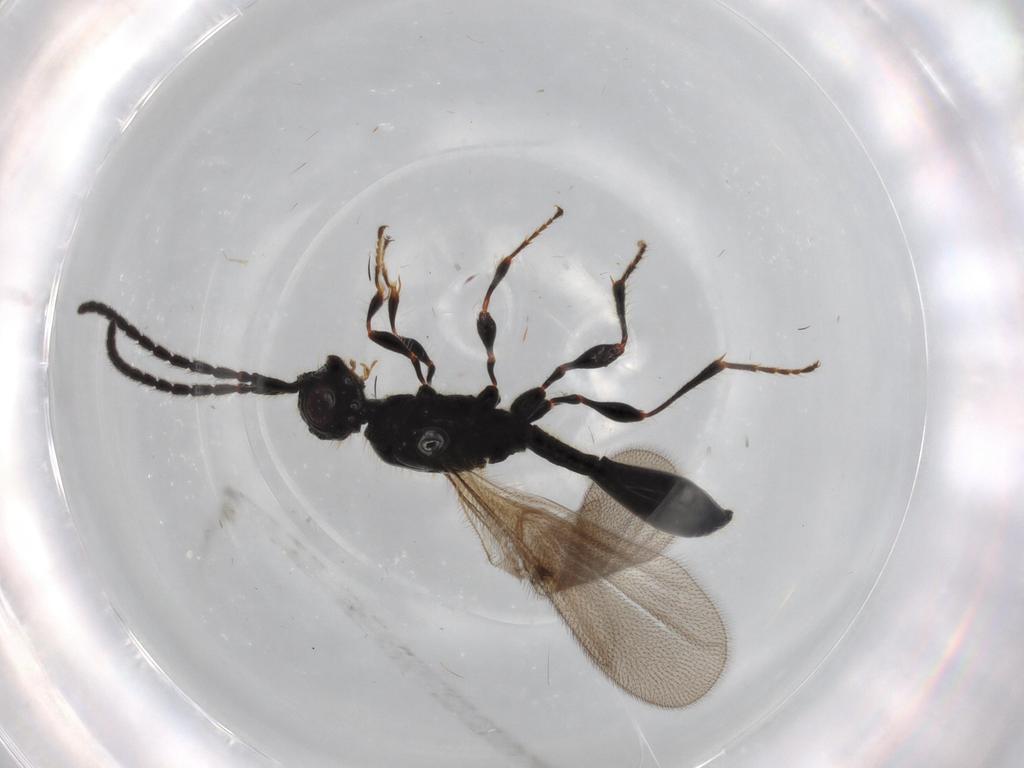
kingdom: Animalia
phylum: Arthropoda
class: Insecta
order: Hymenoptera
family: Diapriidae
